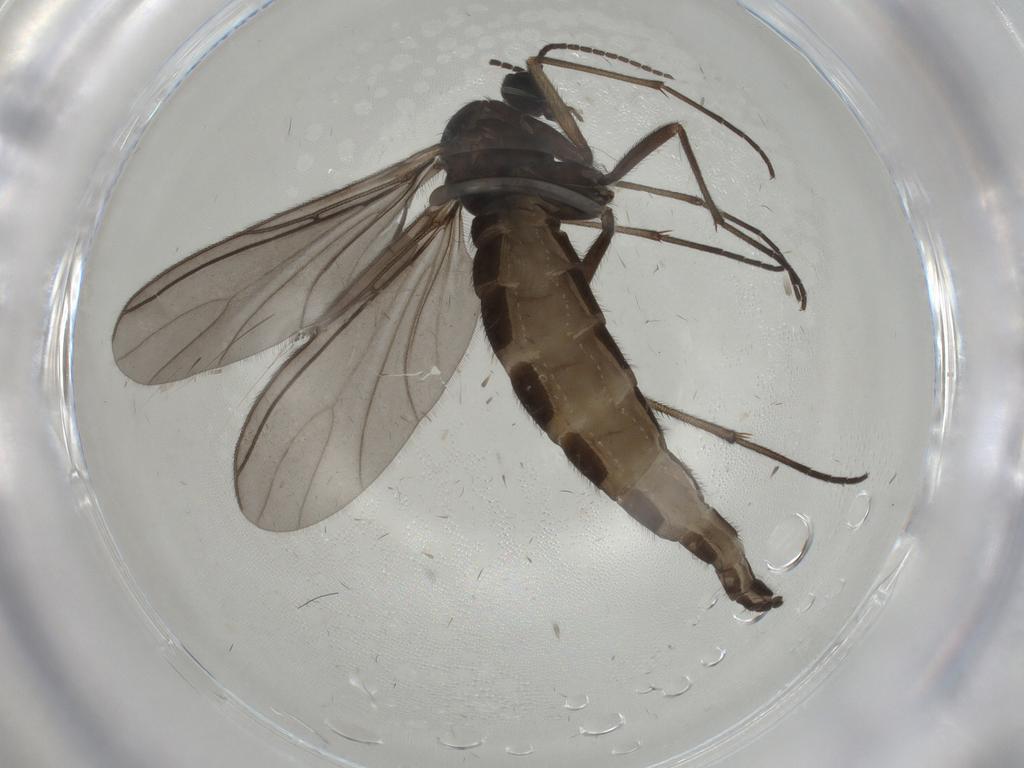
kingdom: Animalia
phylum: Arthropoda
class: Insecta
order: Diptera
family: Sciaridae
